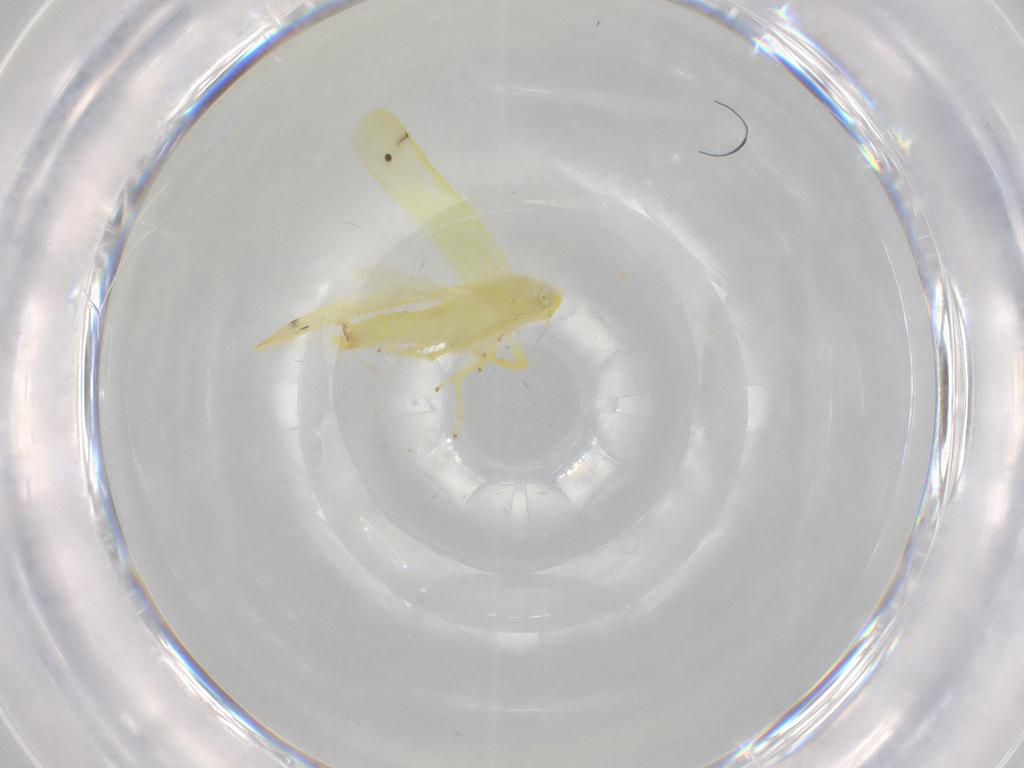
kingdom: Animalia
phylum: Arthropoda
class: Insecta
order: Hemiptera
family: Cicadellidae
